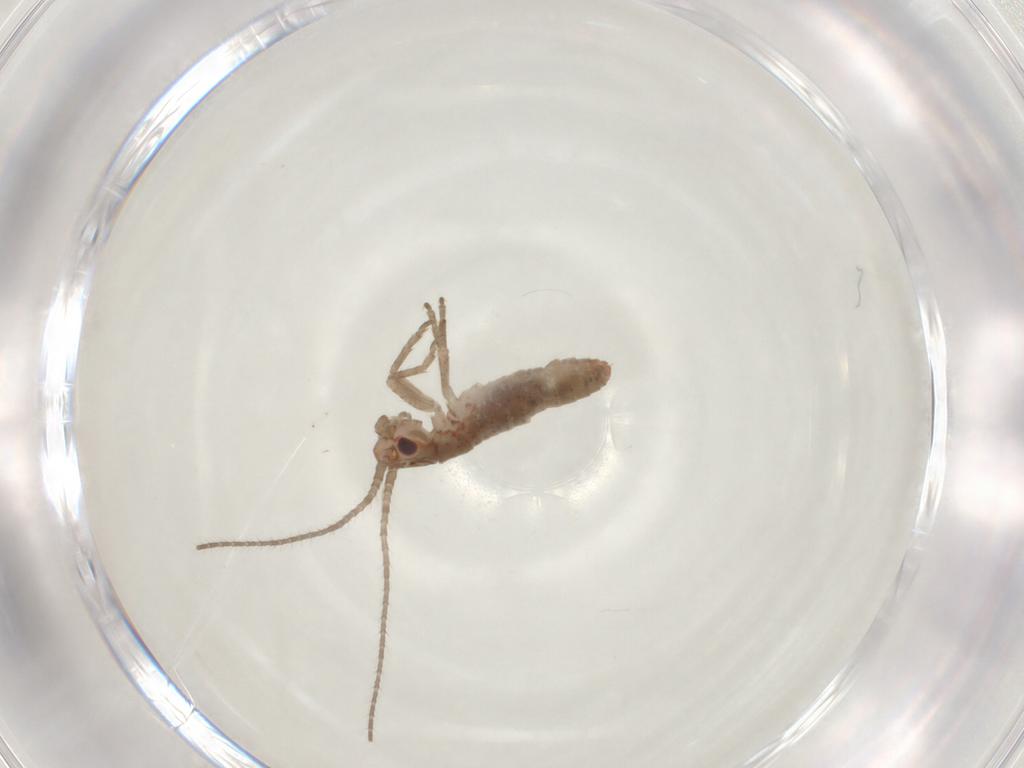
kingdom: Animalia
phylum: Arthropoda
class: Insecta
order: Orthoptera
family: Mogoplistidae
